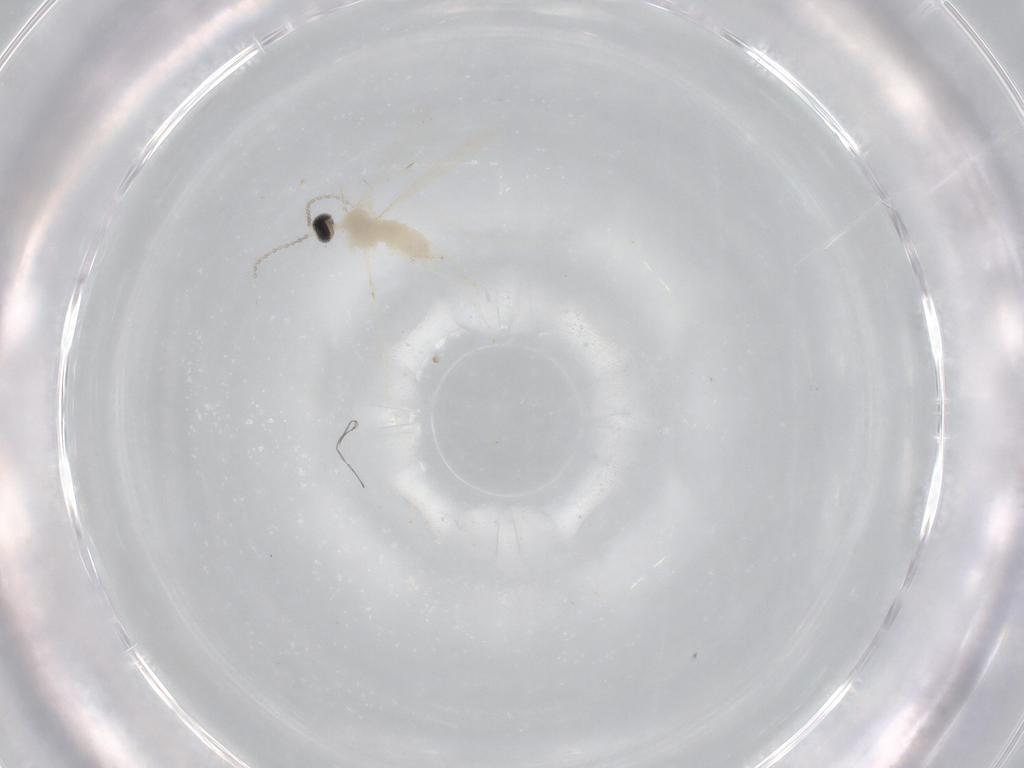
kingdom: Animalia
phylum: Arthropoda
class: Insecta
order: Diptera
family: Cecidomyiidae
